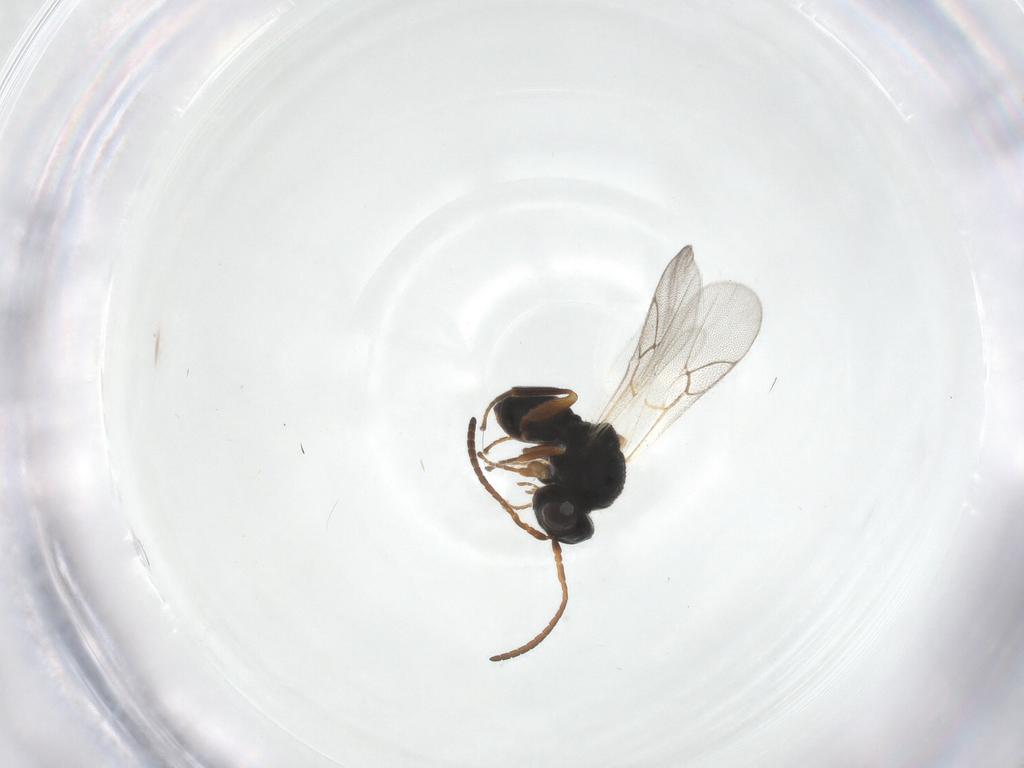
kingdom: Animalia
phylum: Arthropoda
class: Insecta
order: Hymenoptera
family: Cynipidae
